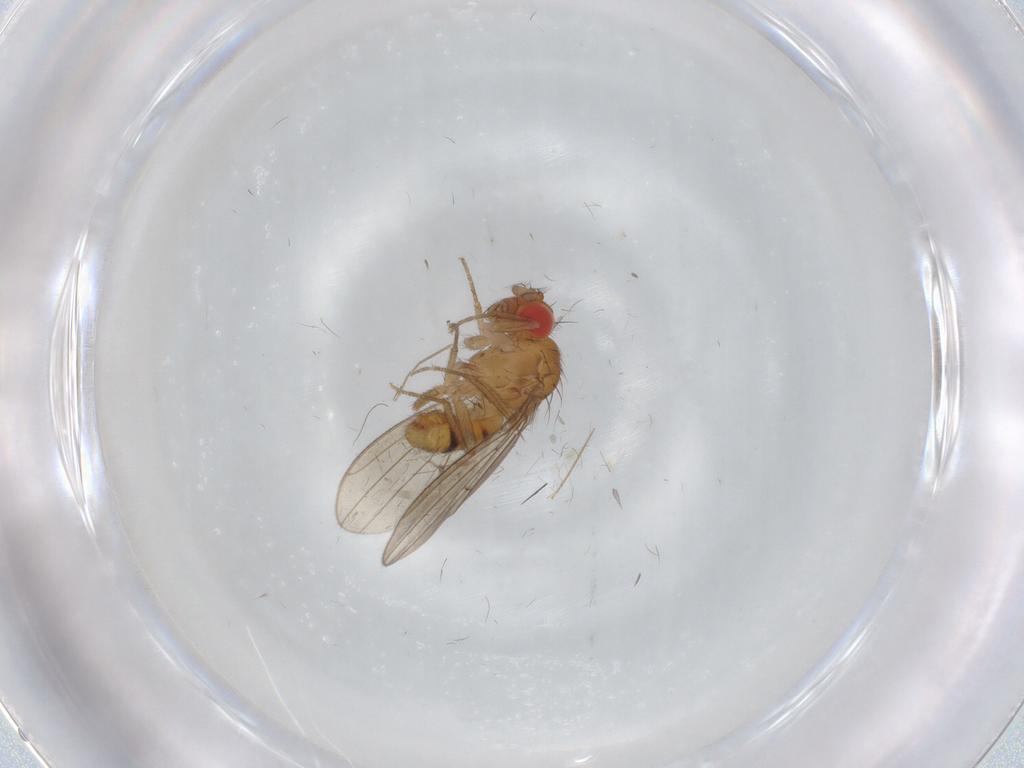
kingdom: Animalia
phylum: Arthropoda
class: Insecta
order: Diptera
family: Drosophilidae
